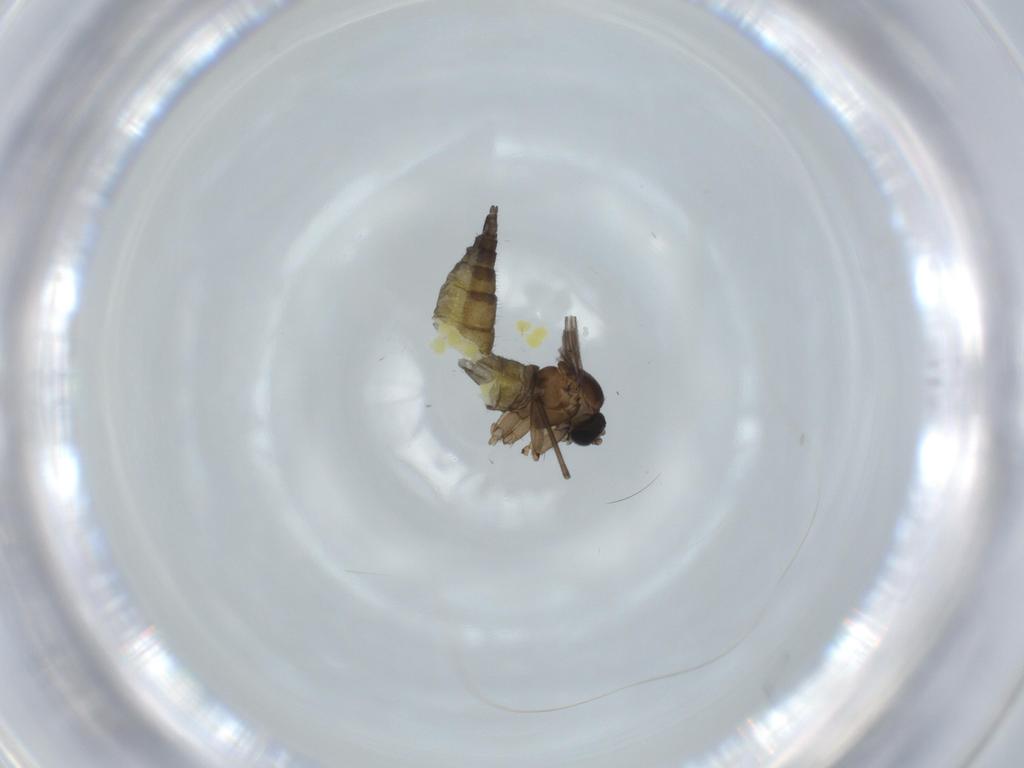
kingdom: Animalia
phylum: Arthropoda
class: Insecta
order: Diptera
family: Sciaridae
